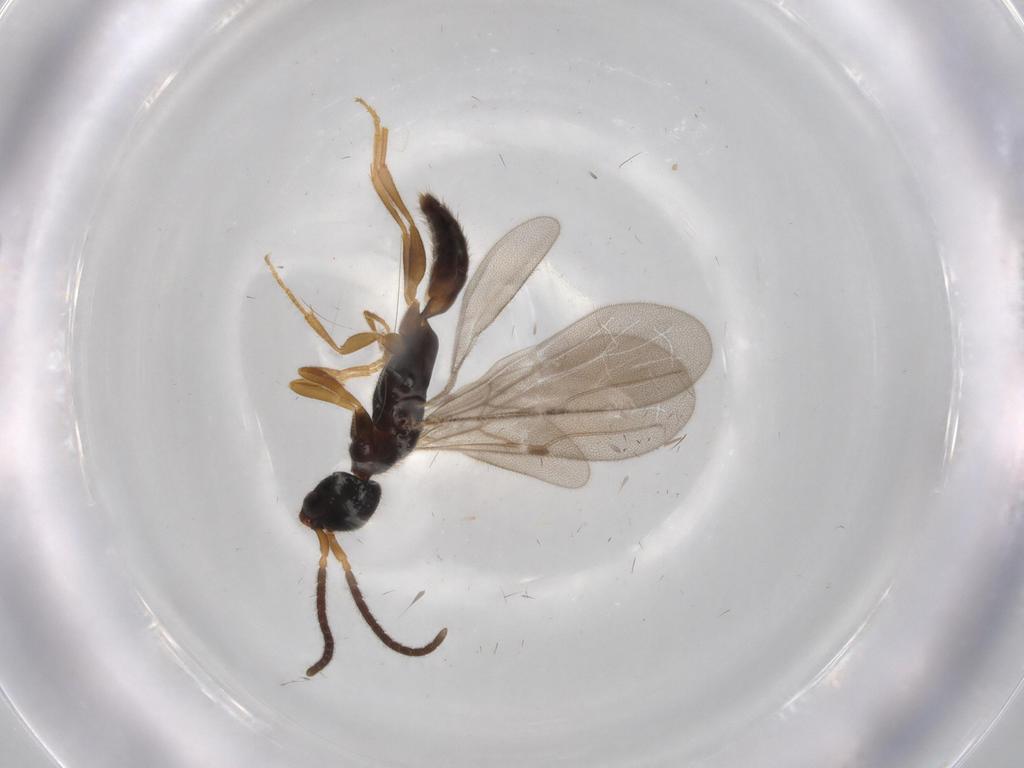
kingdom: Animalia
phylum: Arthropoda
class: Insecta
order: Hymenoptera
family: Bethylidae
